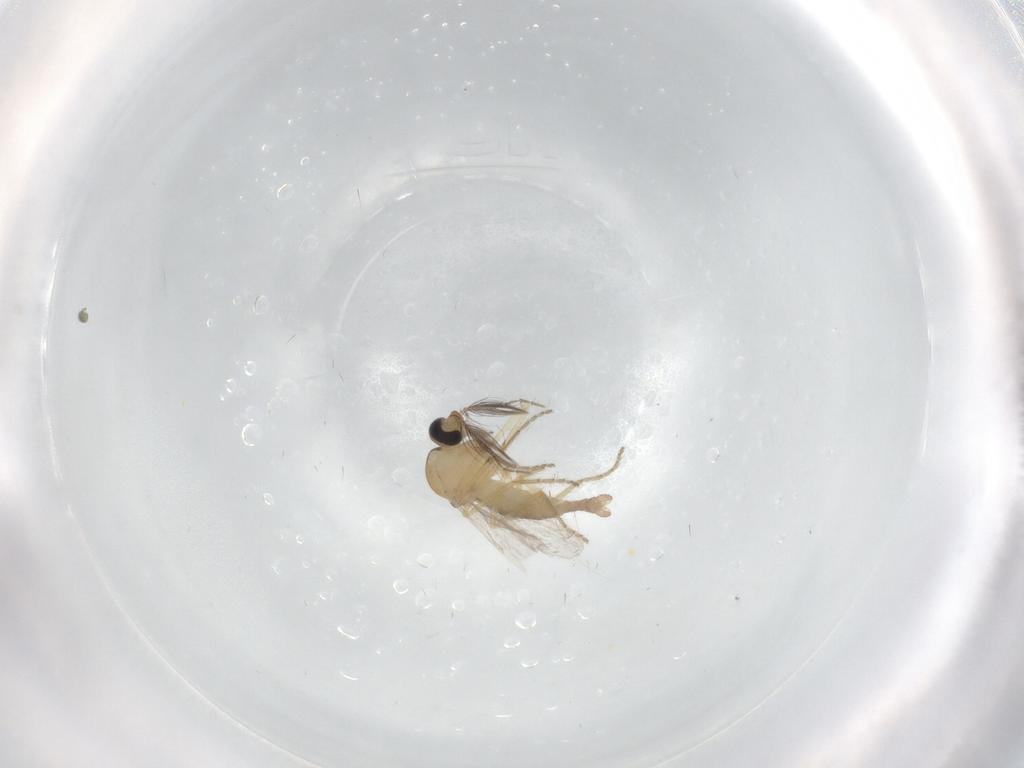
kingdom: Animalia
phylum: Arthropoda
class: Insecta
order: Diptera
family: Ceratopogonidae
